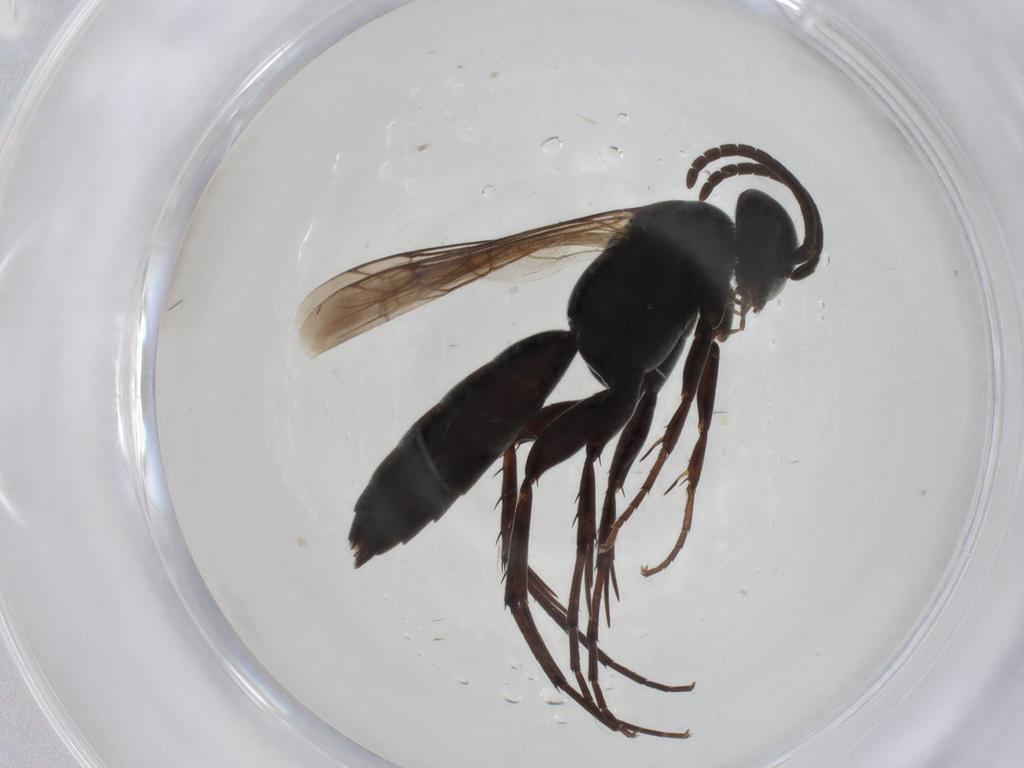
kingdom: Animalia
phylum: Arthropoda
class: Insecta
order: Hymenoptera
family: Pompilidae
